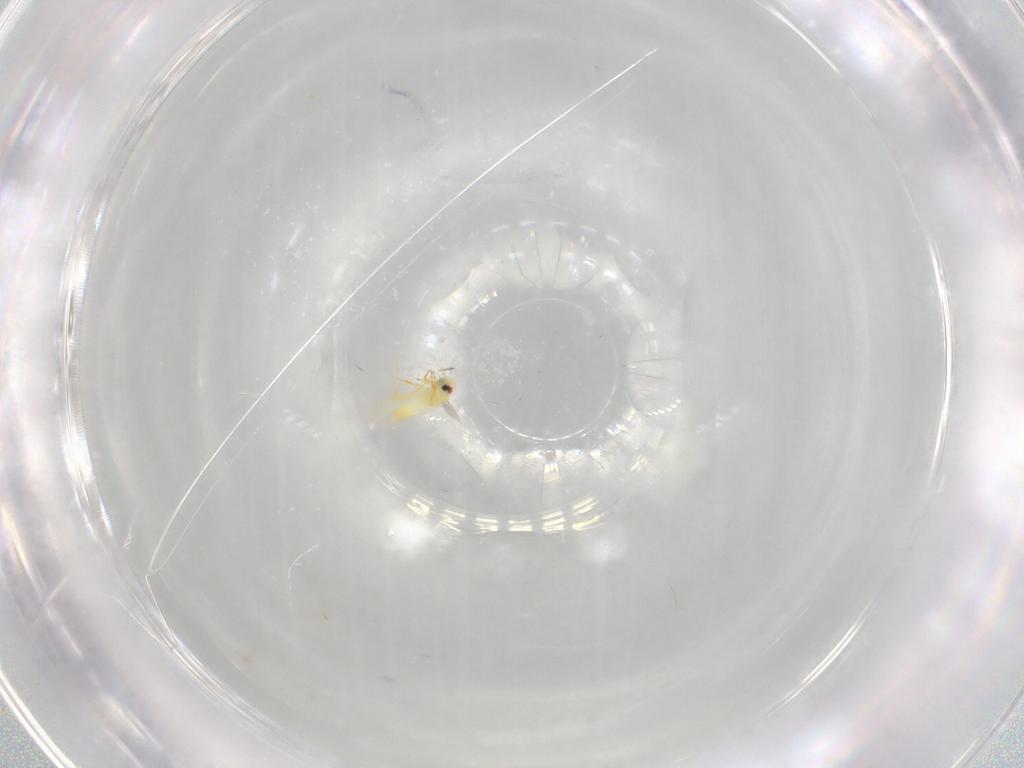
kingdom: Animalia
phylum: Arthropoda
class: Insecta
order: Hemiptera
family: Aleyrodidae
